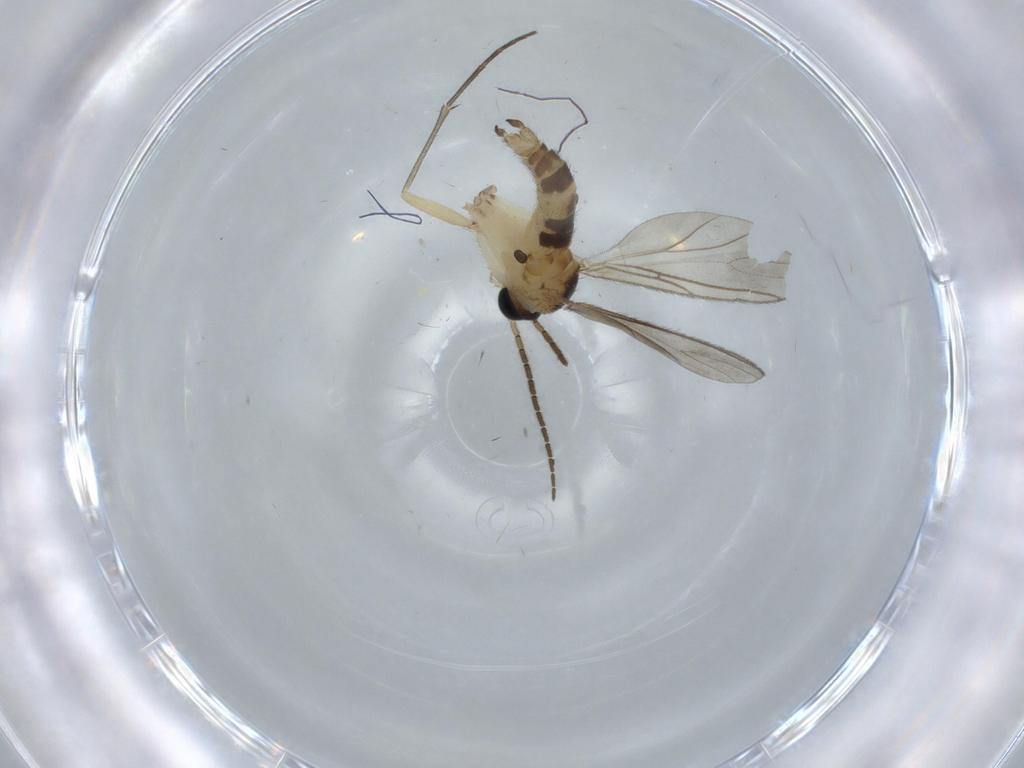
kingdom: Animalia
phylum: Arthropoda
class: Insecta
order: Diptera
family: Sciaridae
